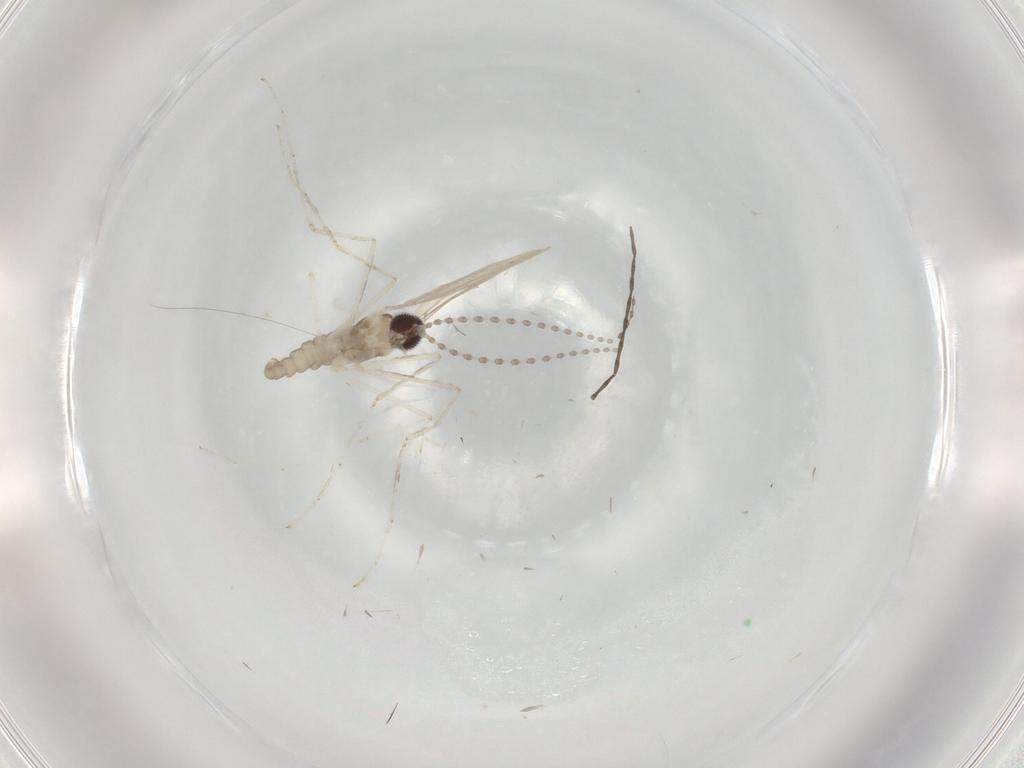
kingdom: Animalia
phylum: Arthropoda
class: Insecta
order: Diptera
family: Cecidomyiidae
